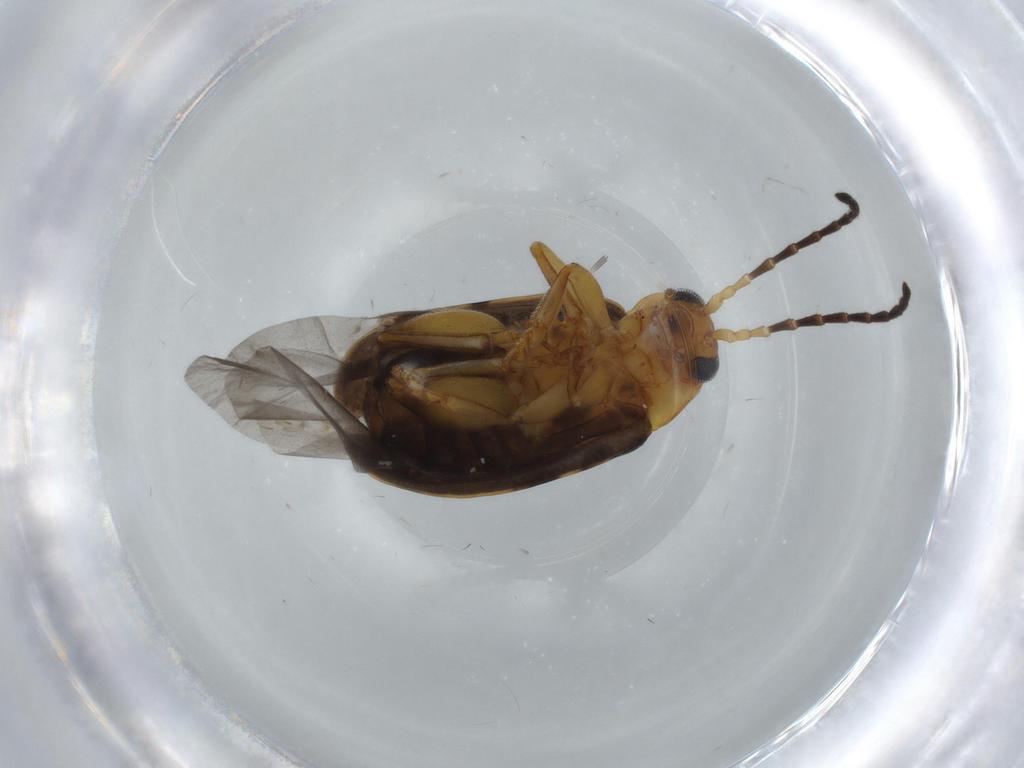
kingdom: Animalia
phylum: Arthropoda
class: Insecta
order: Coleoptera
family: Chrysomelidae
